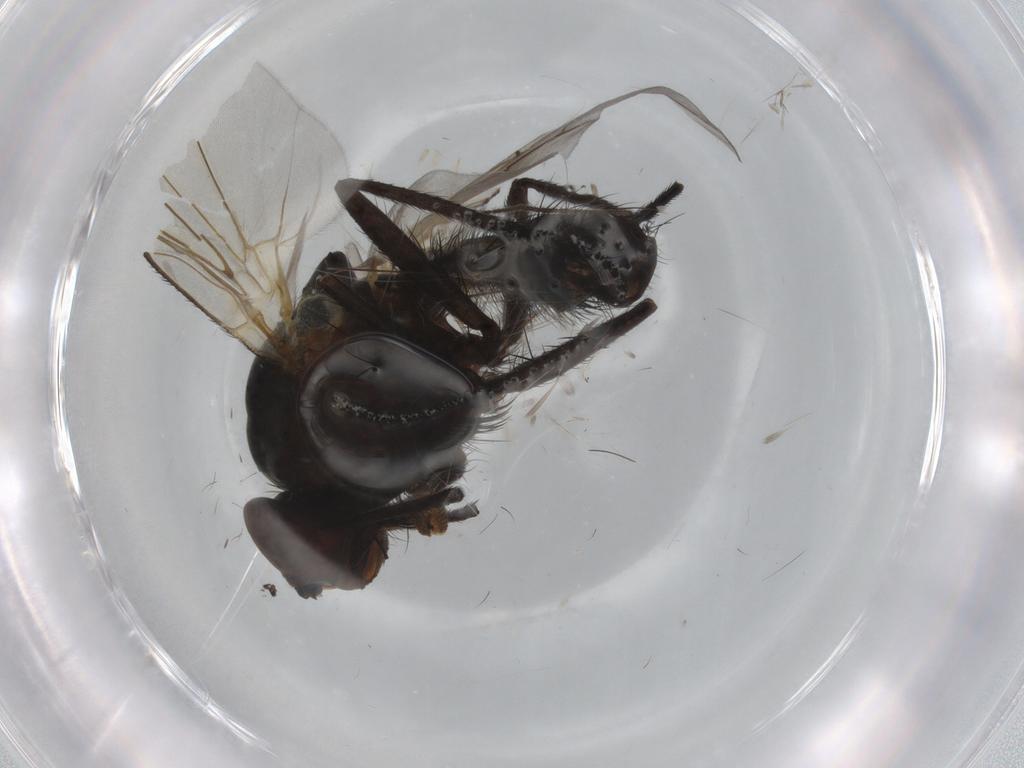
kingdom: Animalia
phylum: Arthropoda
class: Insecta
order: Diptera
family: Anthomyiidae
